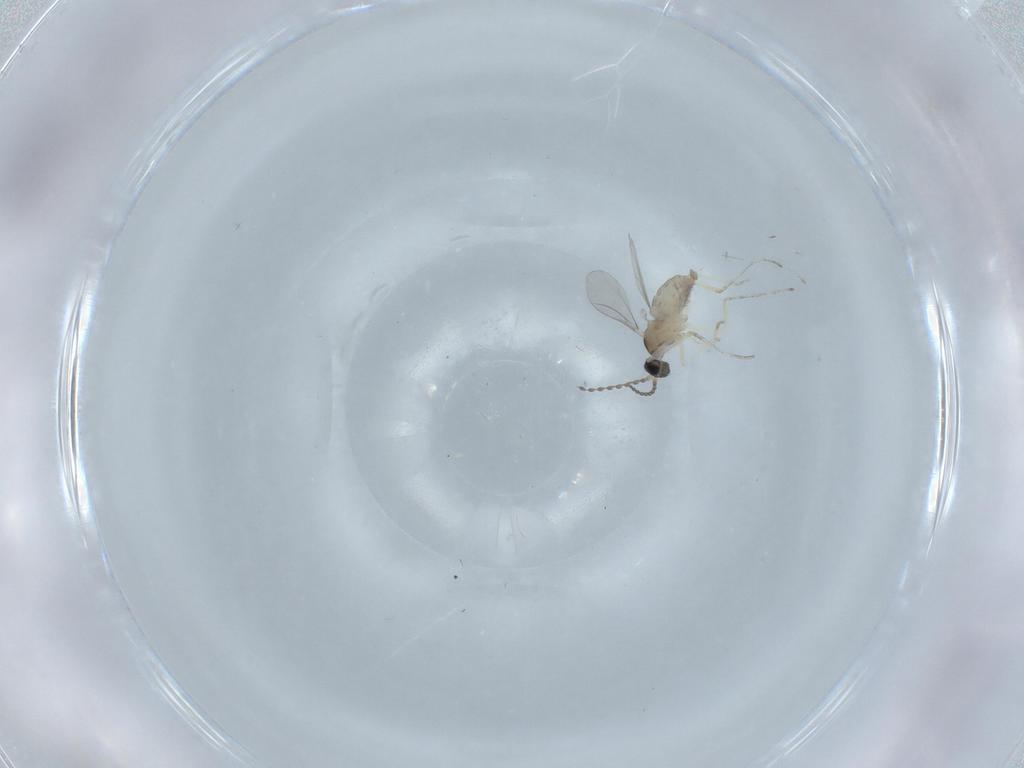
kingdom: Animalia
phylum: Arthropoda
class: Insecta
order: Diptera
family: Cecidomyiidae
